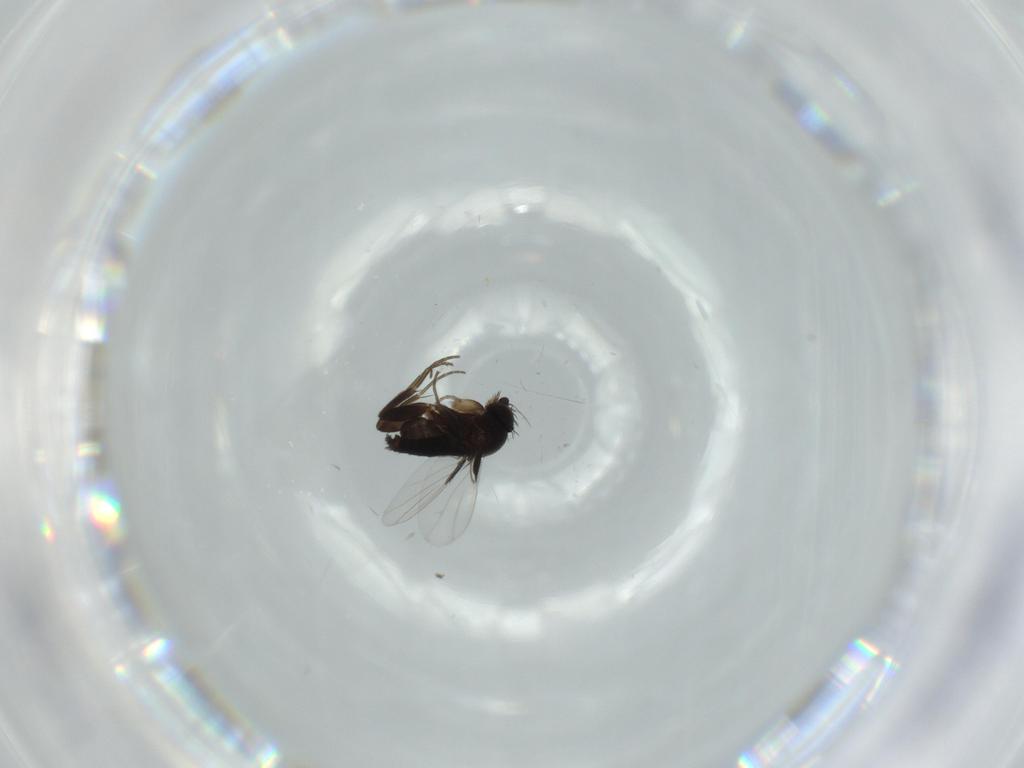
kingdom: Animalia
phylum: Arthropoda
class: Insecta
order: Diptera
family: Phoridae
